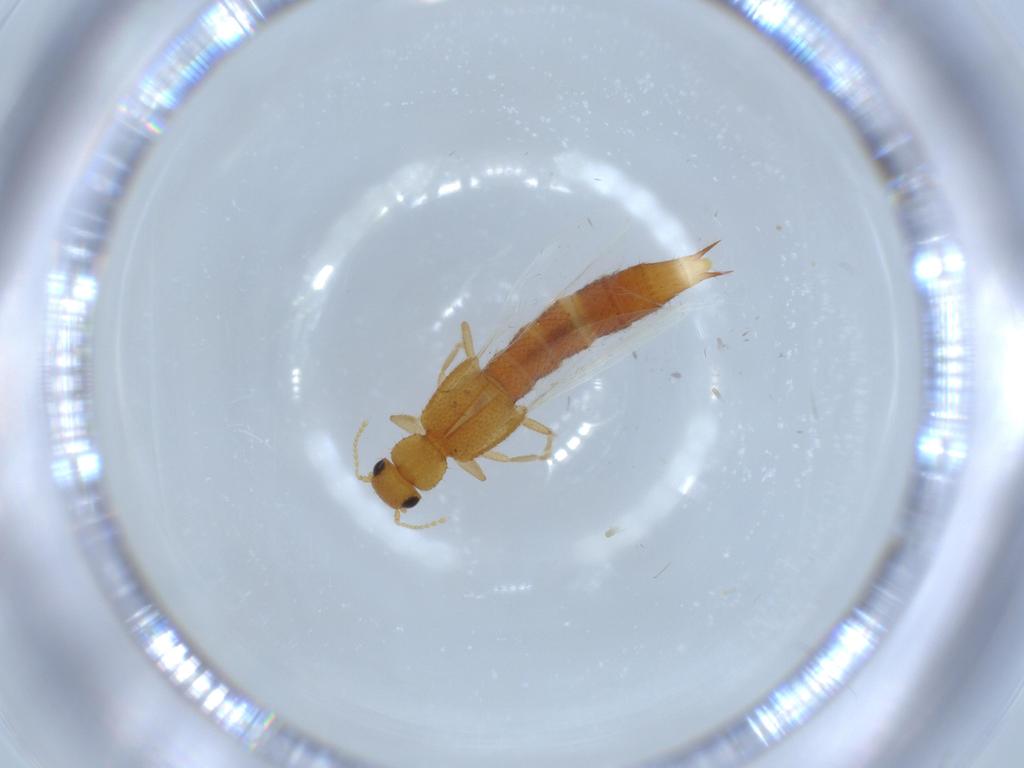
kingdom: Animalia
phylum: Arthropoda
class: Insecta
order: Coleoptera
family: Staphylinidae
